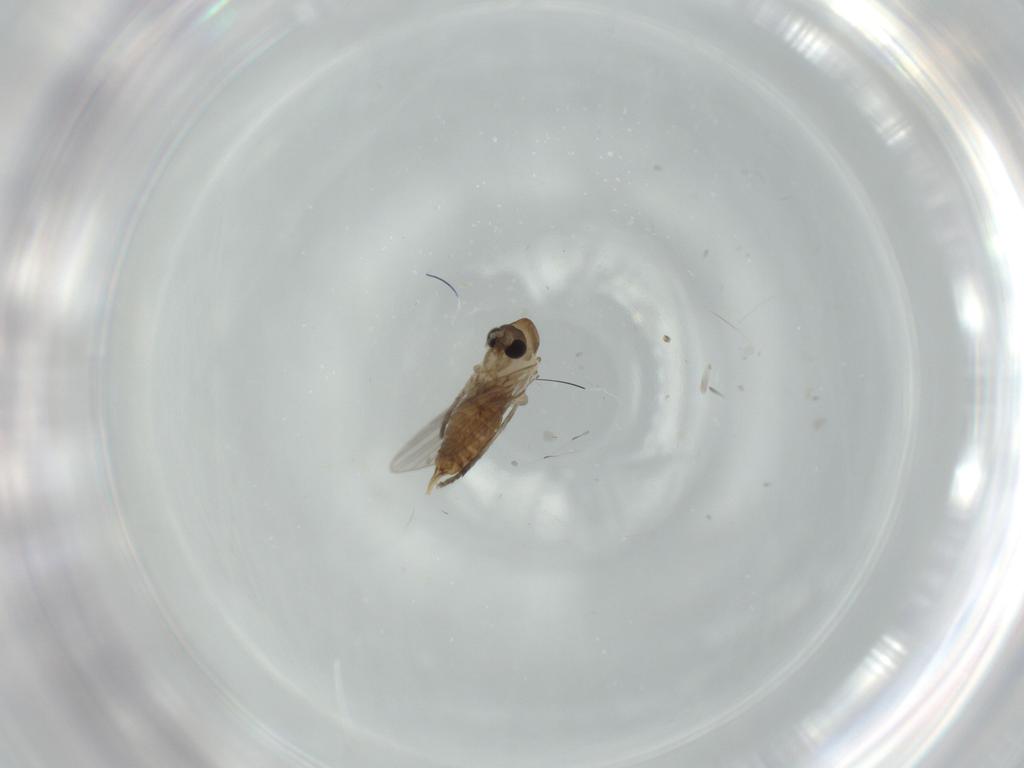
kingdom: Animalia
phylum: Arthropoda
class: Insecta
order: Diptera
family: Psychodidae
